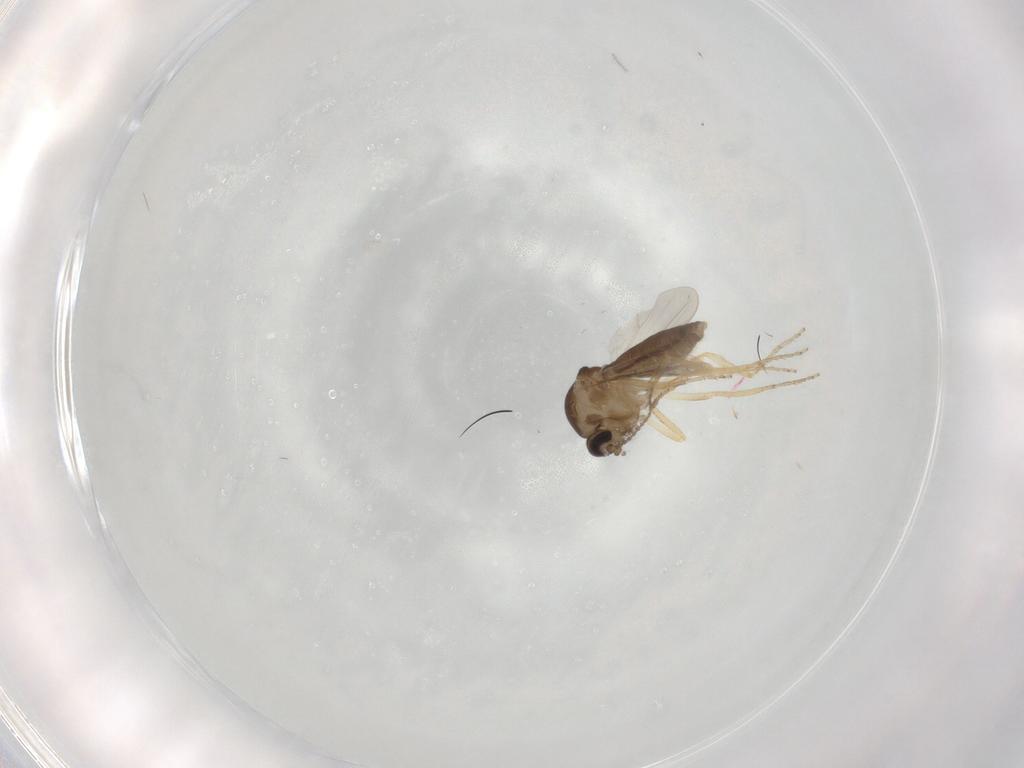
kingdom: Animalia
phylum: Arthropoda
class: Insecta
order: Diptera
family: Ceratopogonidae
